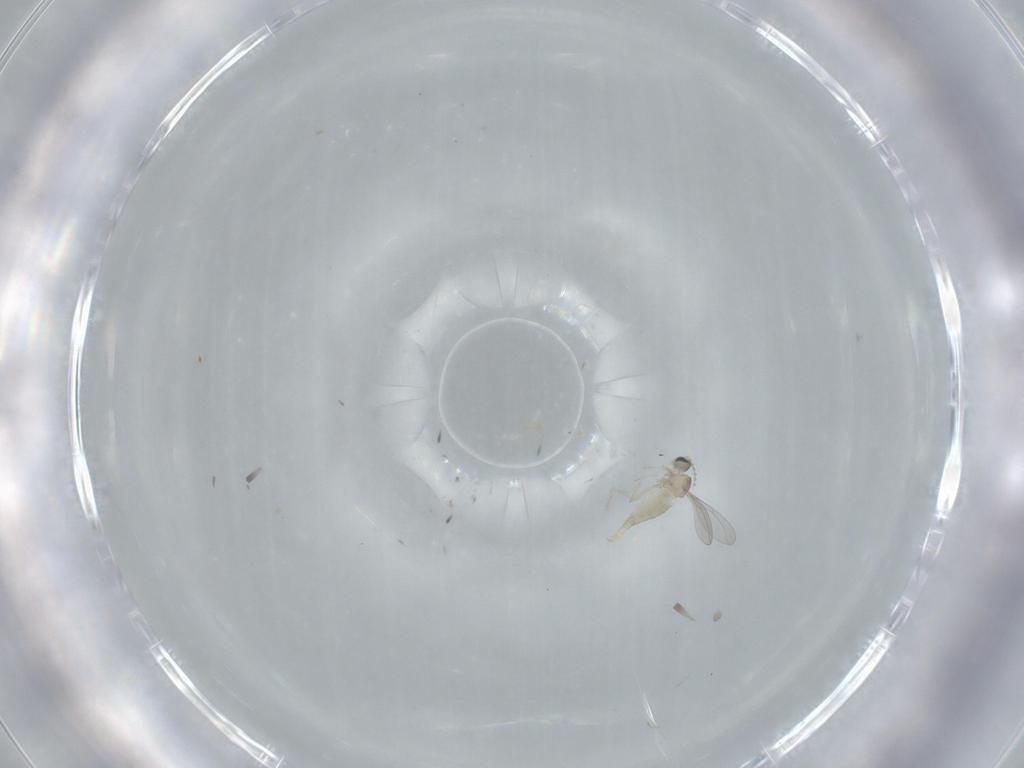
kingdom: Animalia
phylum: Arthropoda
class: Insecta
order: Diptera
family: Cecidomyiidae
